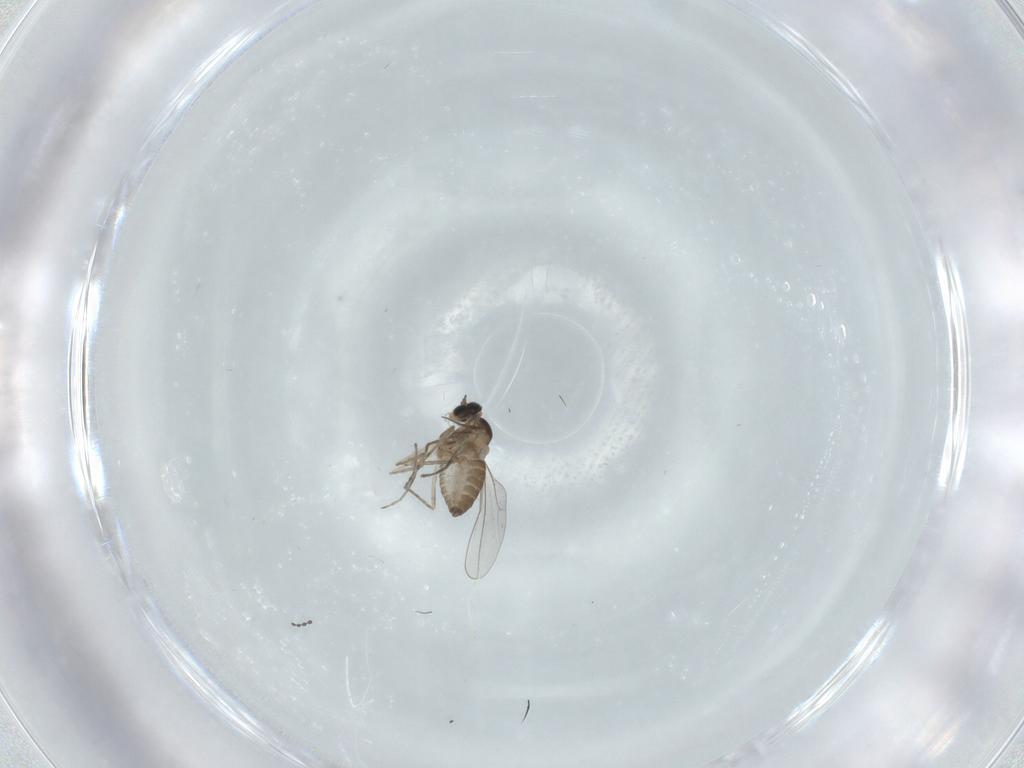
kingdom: Animalia
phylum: Arthropoda
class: Insecta
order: Diptera
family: Cecidomyiidae
